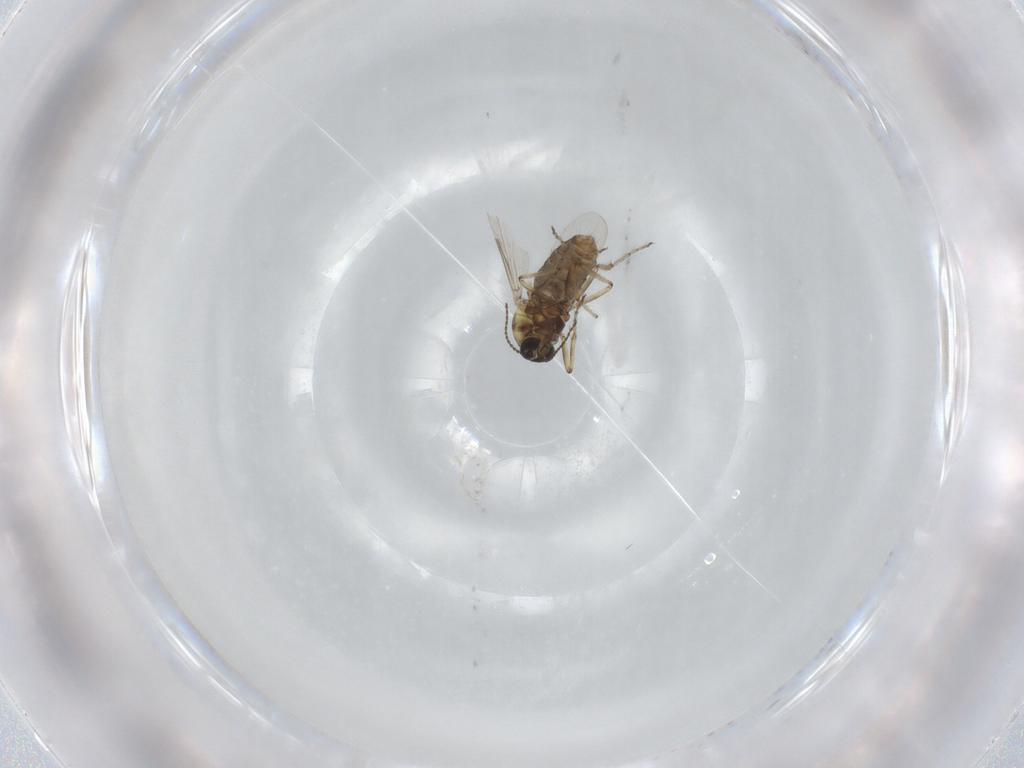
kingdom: Animalia
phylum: Arthropoda
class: Insecta
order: Diptera
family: Ceratopogonidae
